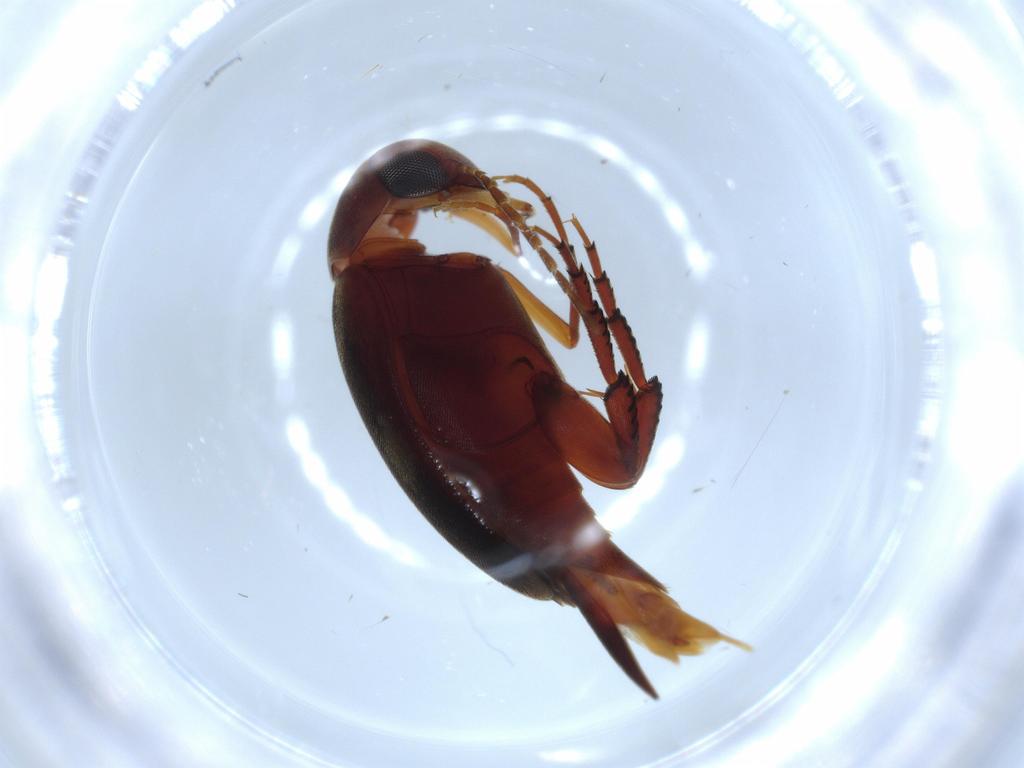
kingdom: Animalia
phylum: Arthropoda
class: Insecta
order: Coleoptera
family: Mordellidae
